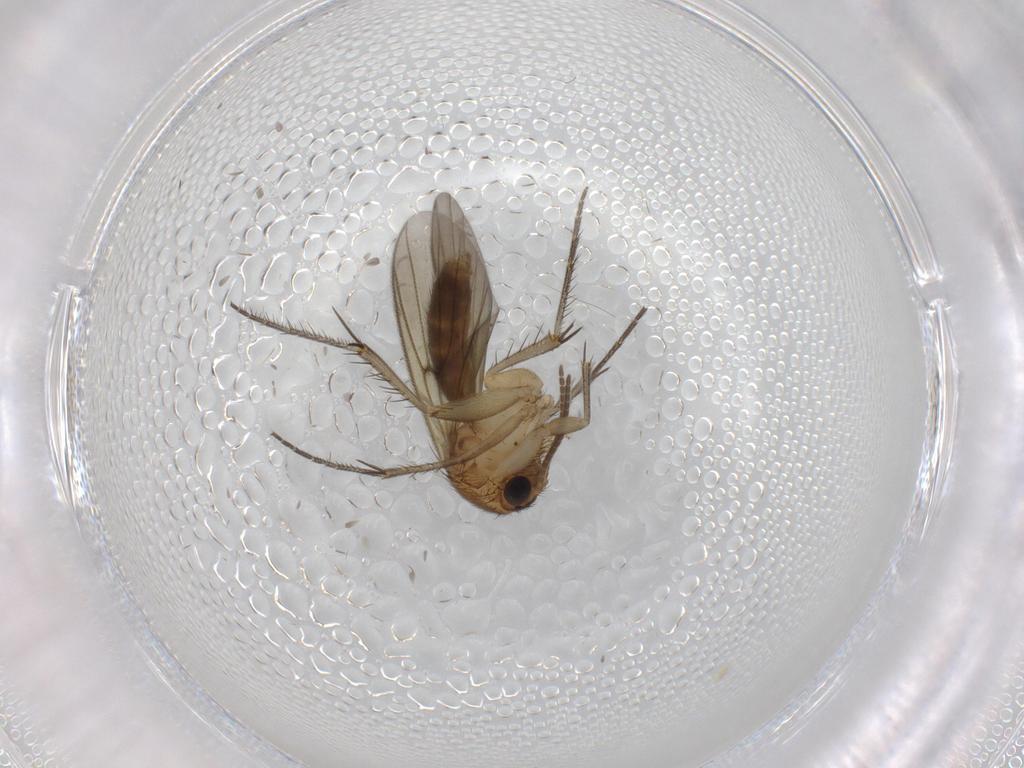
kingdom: Animalia
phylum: Arthropoda
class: Insecta
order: Diptera
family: Mycetophilidae
